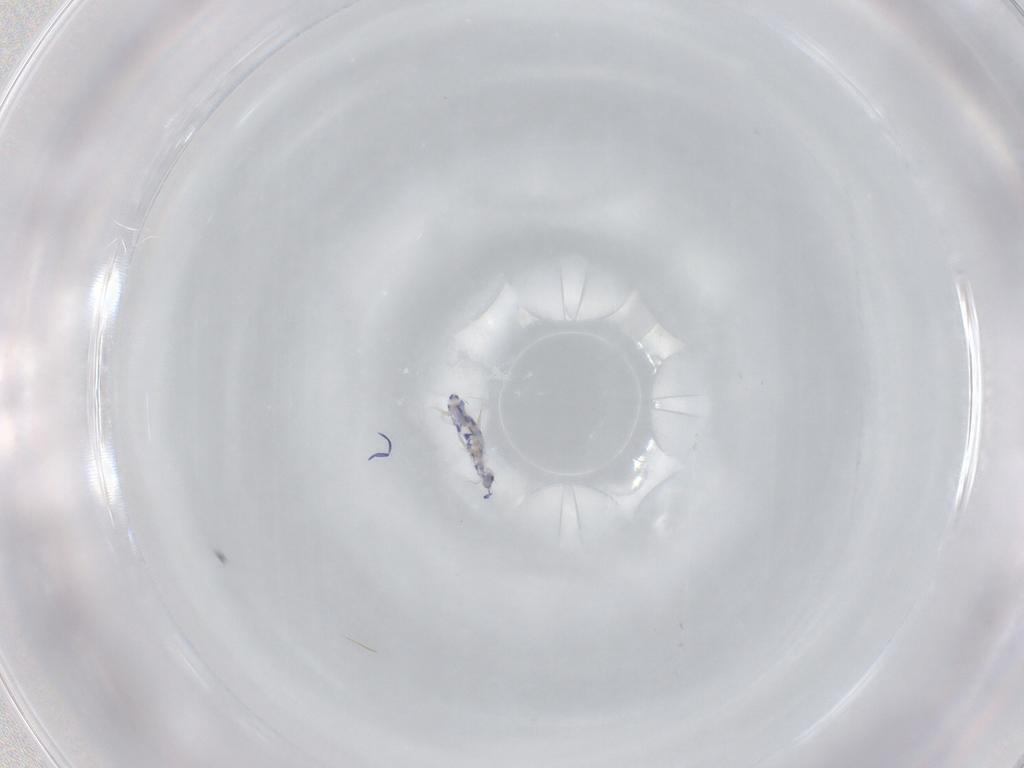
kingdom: Animalia
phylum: Arthropoda
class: Collembola
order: Entomobryomorpha
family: Entomobryidae
